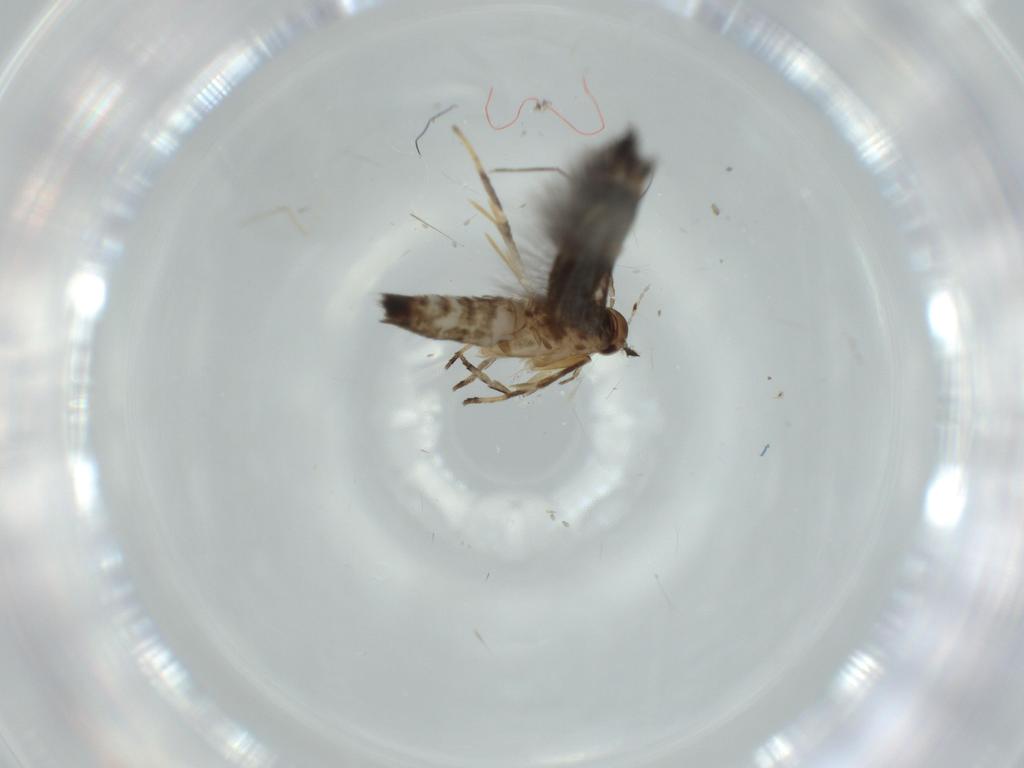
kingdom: Animalia
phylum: Arthropoda
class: Insecta
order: Lepidoptera
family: Cosmopterigidae
